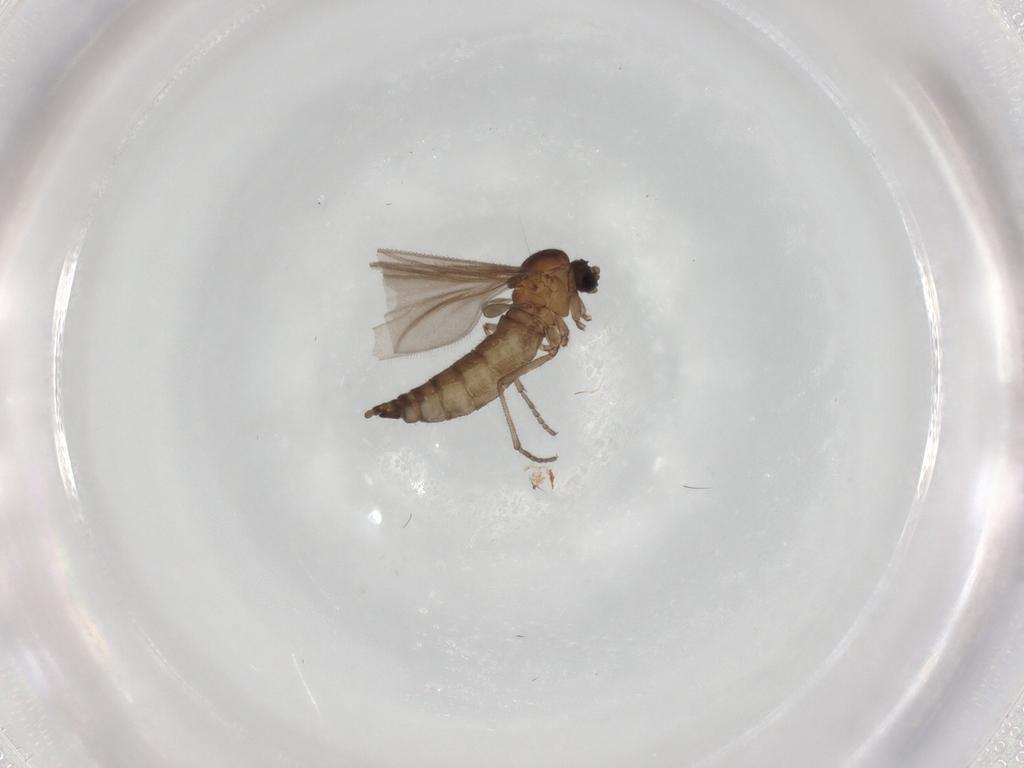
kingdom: Animalia
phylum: Arthropoda
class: Insecta
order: Diptera
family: Sciaridae
